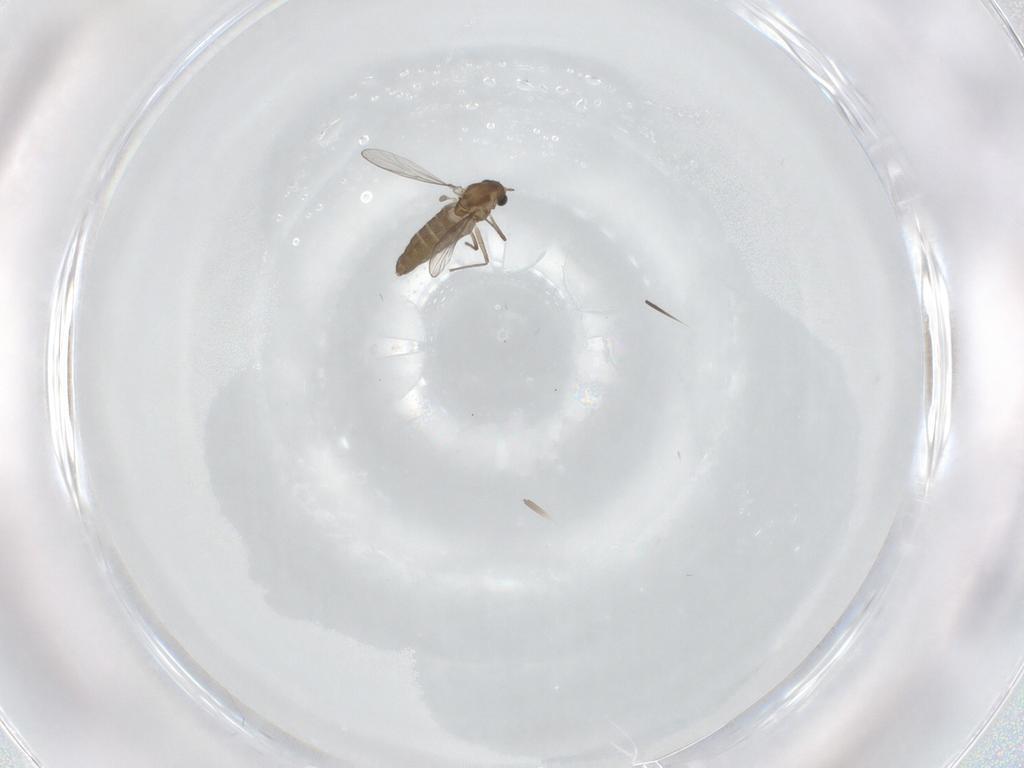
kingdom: Animalia
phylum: Arthropoda
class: Insecta
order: Diptera
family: Chironomidae
